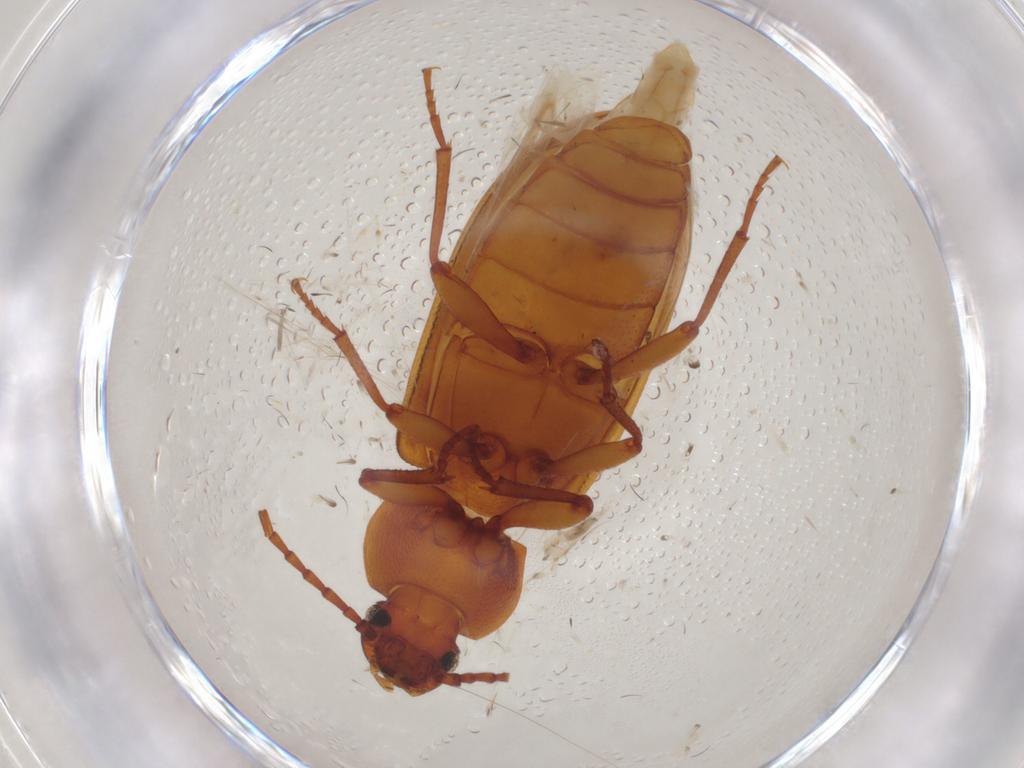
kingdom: Animalia
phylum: Arthropoda
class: Insecta
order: Coleoptera
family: Tenebrionidae
